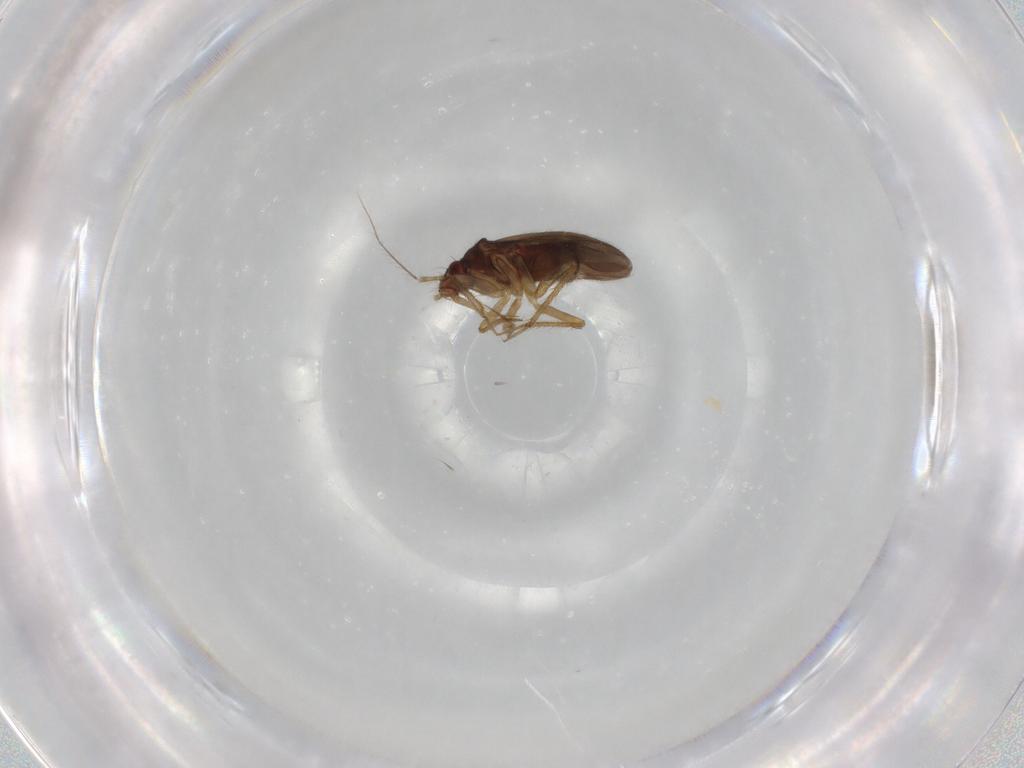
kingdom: Animalia
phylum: Arthropoda
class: Insecta
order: Hemiptera
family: Ceratocombidae
